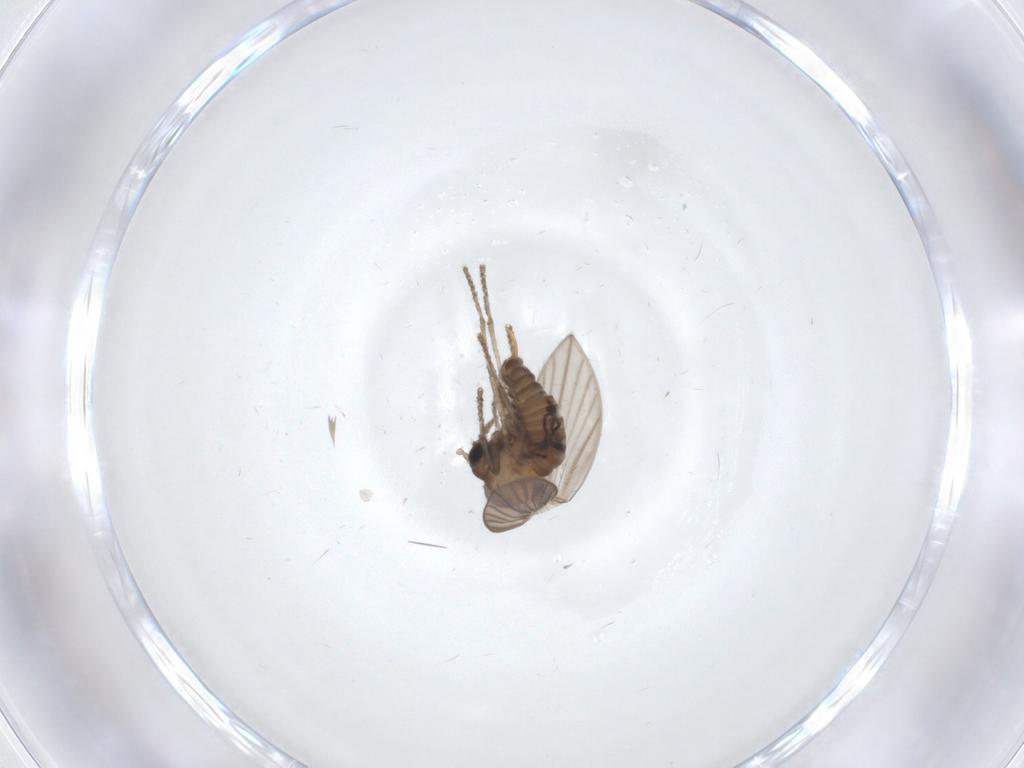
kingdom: Animalia
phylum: Arthropoda
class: Insecta
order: Diptera
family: Psychodidae
